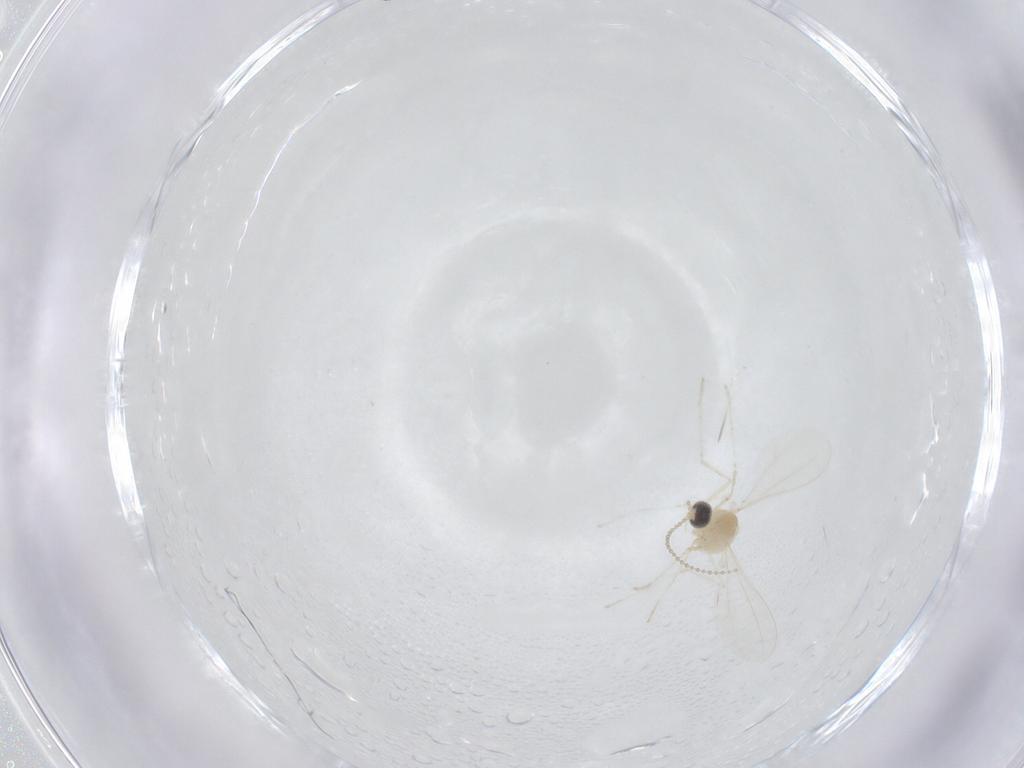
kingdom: Animalia
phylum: Arthropoda
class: Insecta
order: Diptera
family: Cecidomyiidae
